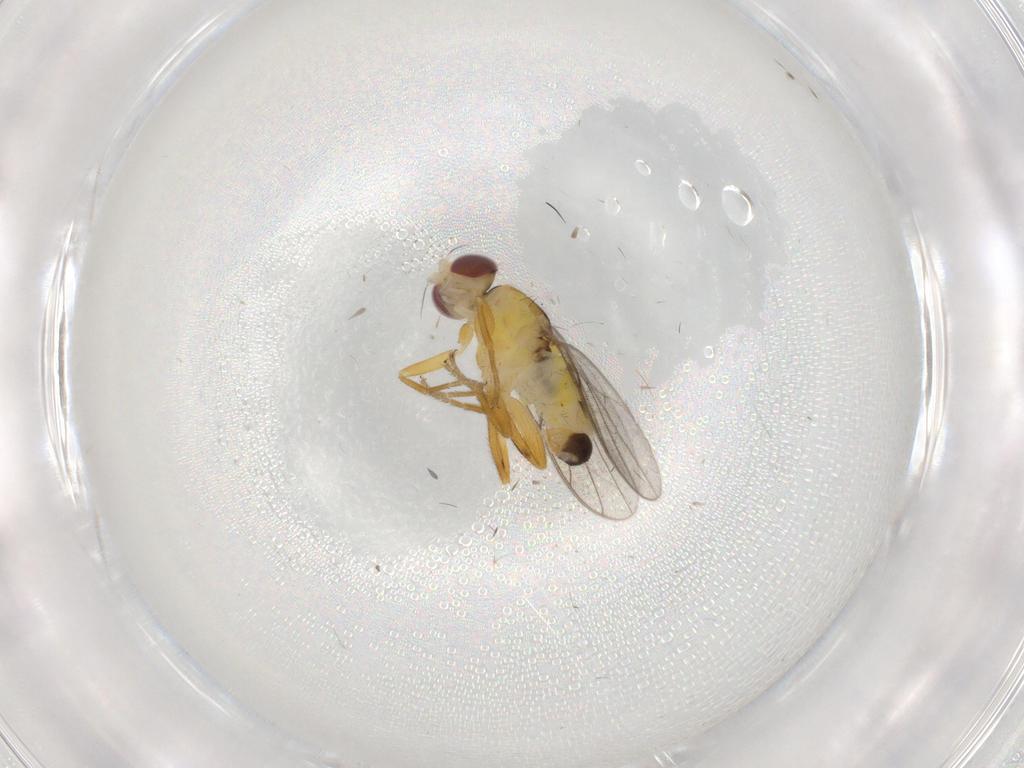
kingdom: Animalia
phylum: Arthropoda
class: Insecta
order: Diptera
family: Chloropidae
